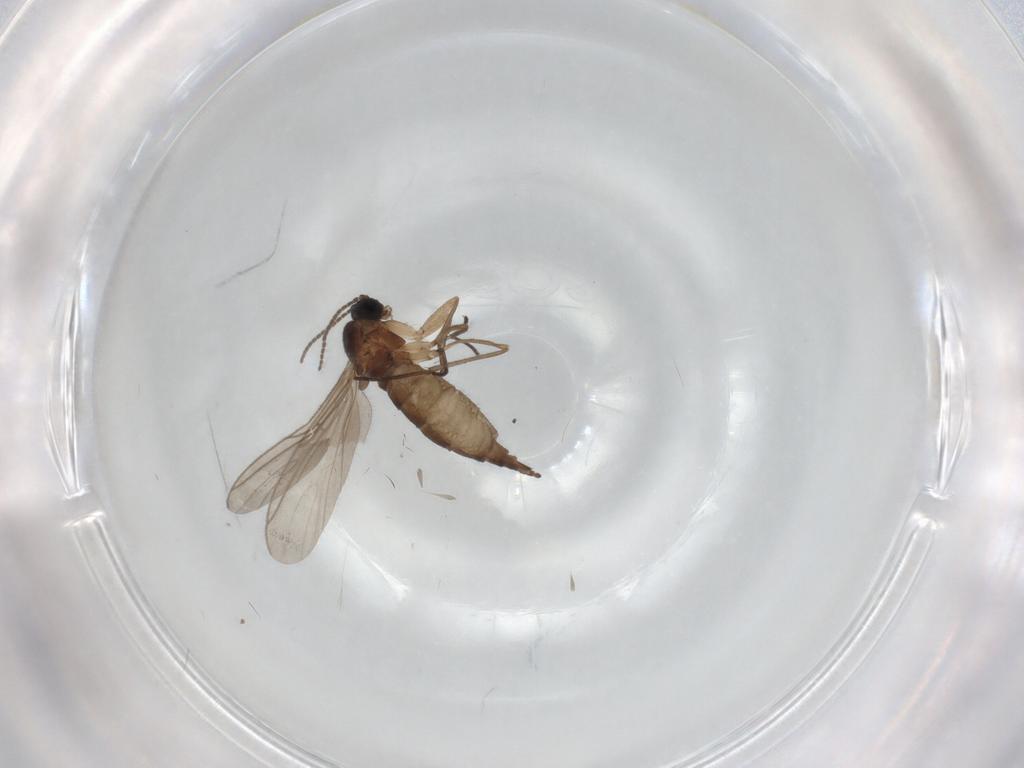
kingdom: Animalia
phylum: Arthropoda
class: Insecta
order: Diptera
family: Sciaridae
